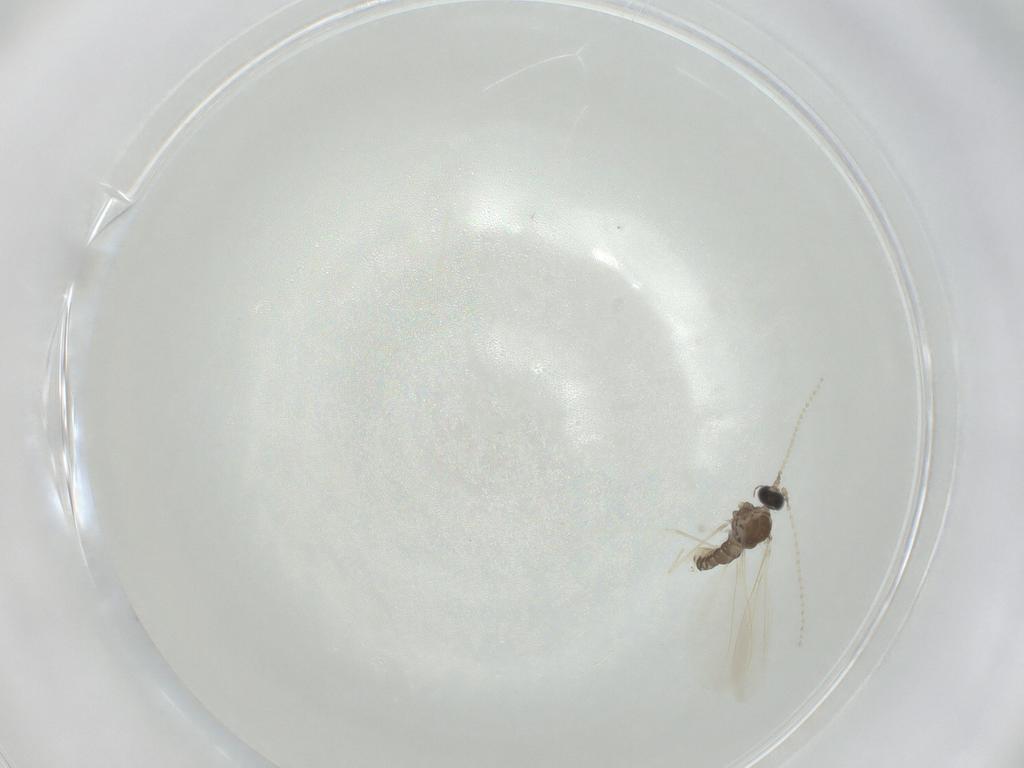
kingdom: Animalia
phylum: Arthropoda
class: Insecta
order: Diptera
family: Cecidomyiidae
